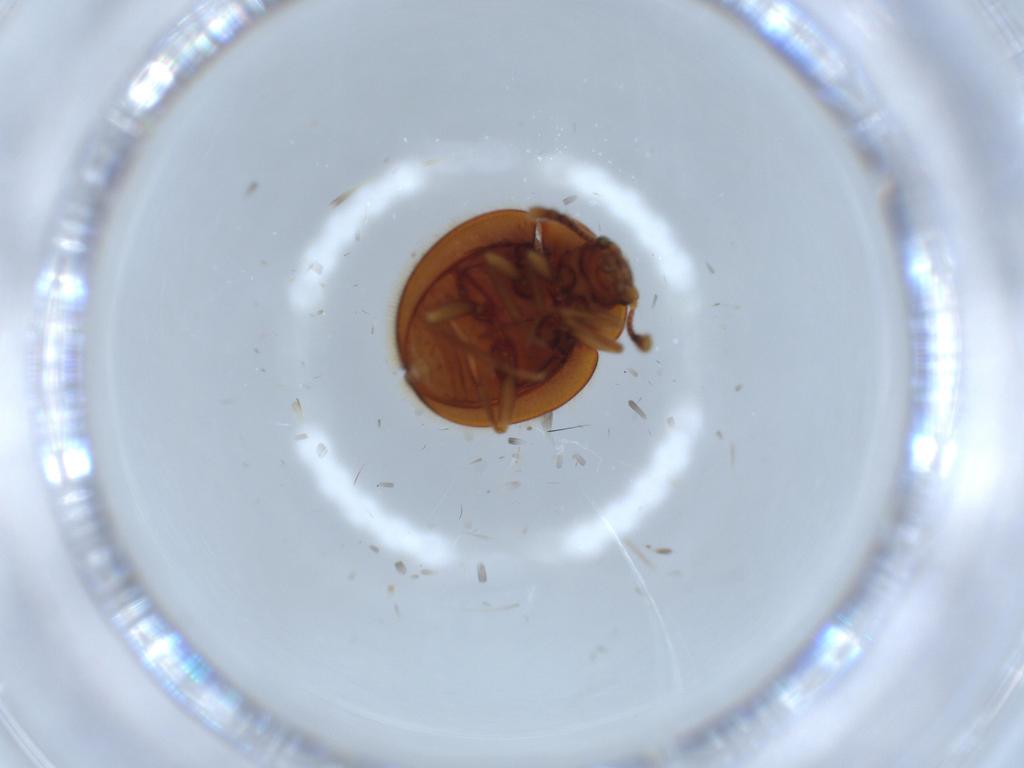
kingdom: Animalia
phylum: Arthropoda
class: Insecta
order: Coleoptera
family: Anamorphidae
